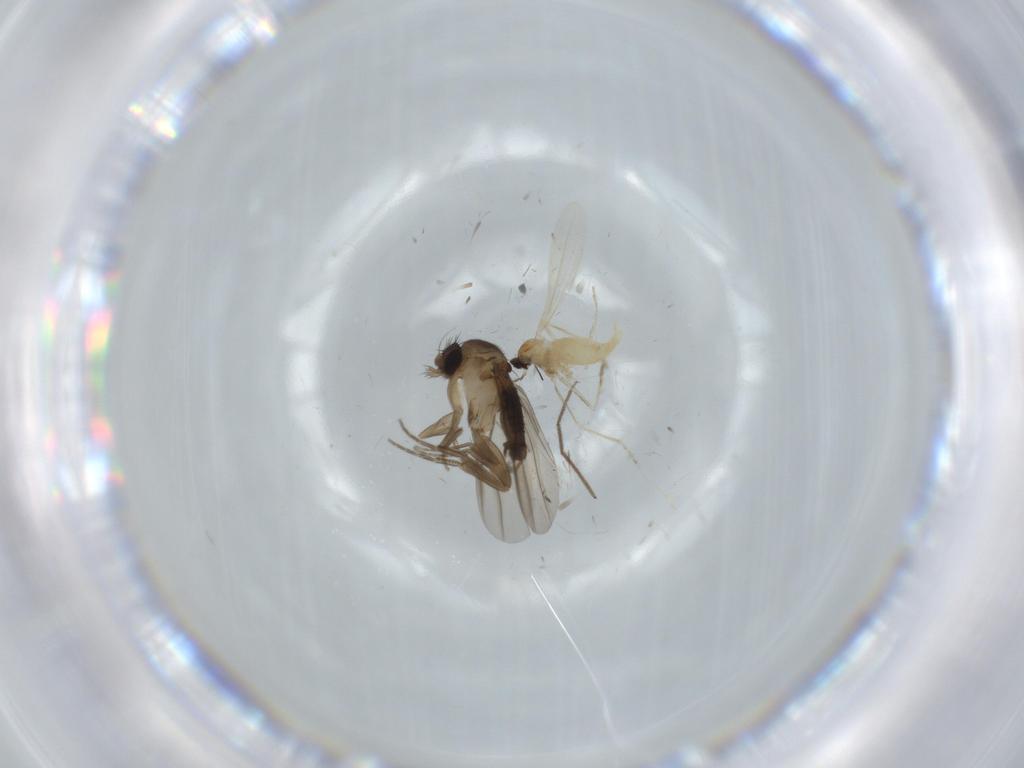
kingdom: Animalia
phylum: Arthropoda
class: Insecta
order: Diptera
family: Cecidomyiidae
